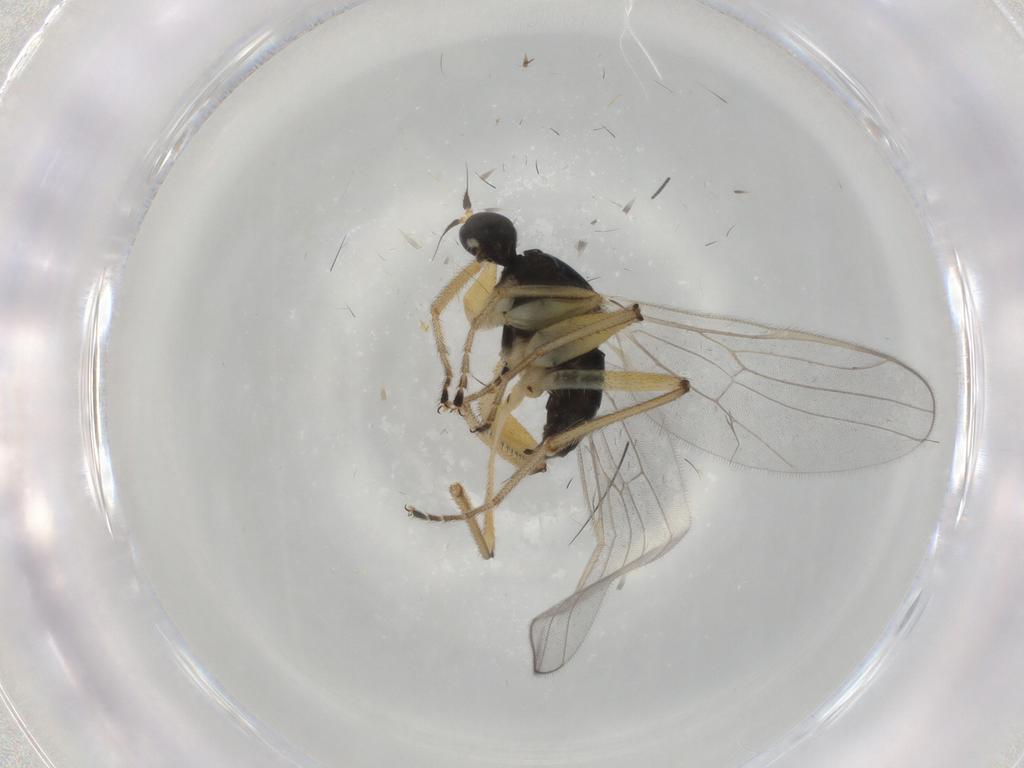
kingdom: Animalia
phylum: Arthropoda
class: Insecta
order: Diptera
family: Hybotidae
